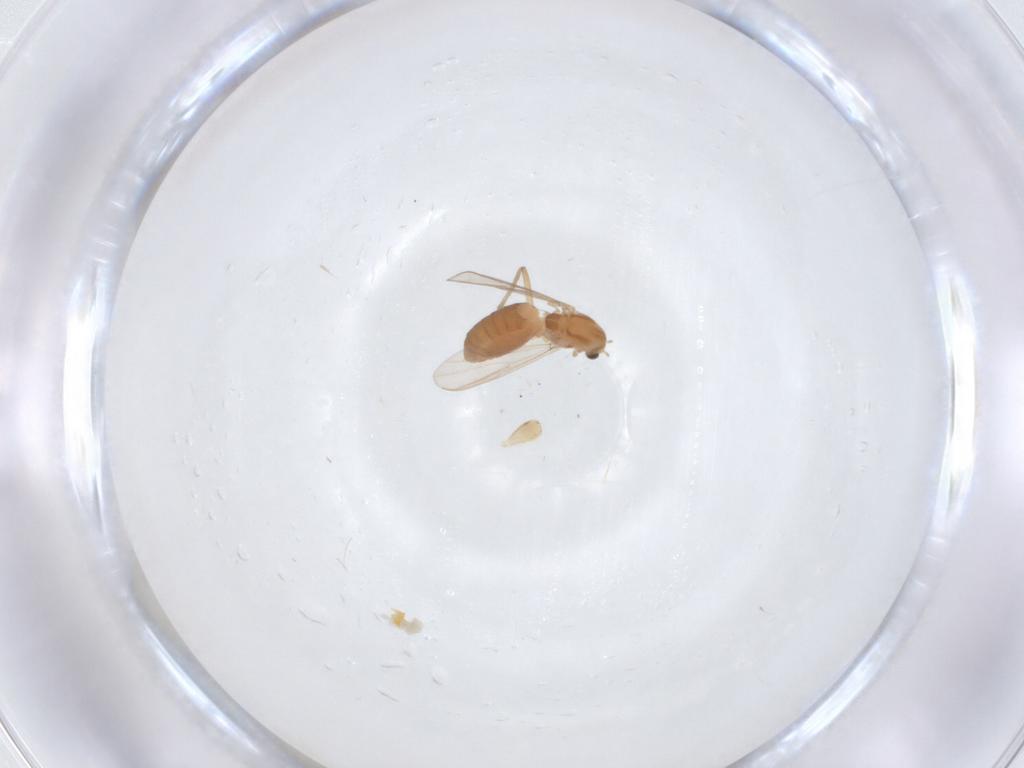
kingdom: Animalia
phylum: Arthropoda
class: Insecta
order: Diptera
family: Chironomidae
